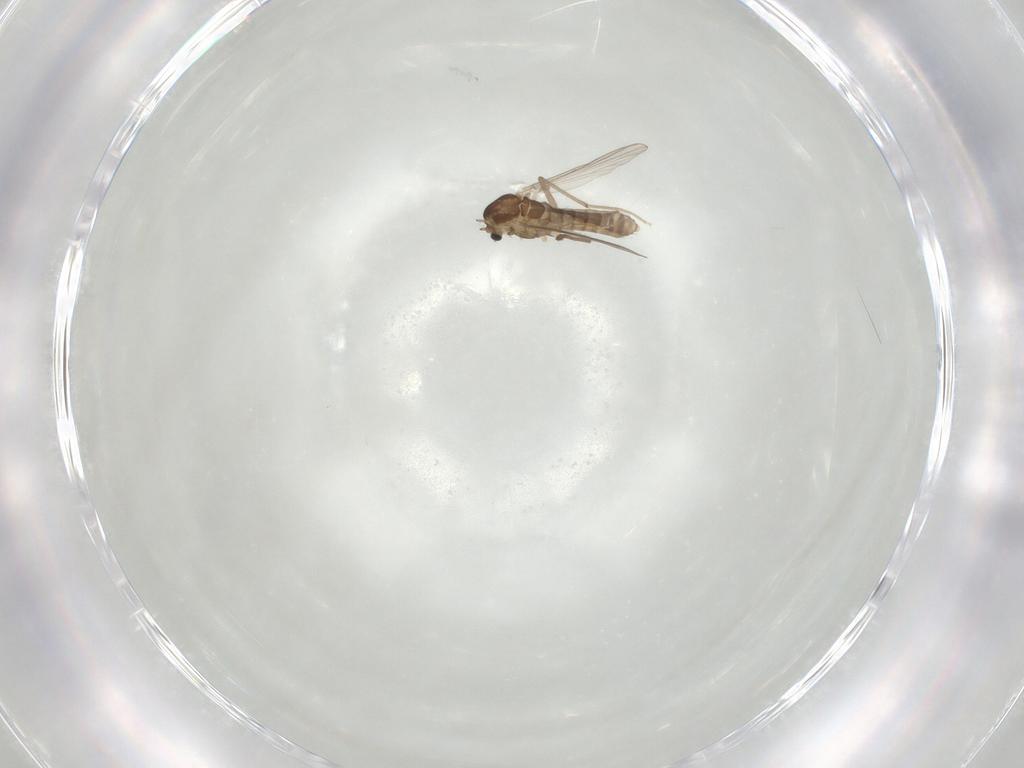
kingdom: Animalia
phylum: Arthropoda
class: Insecta
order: Diptera
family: Chironomidae
